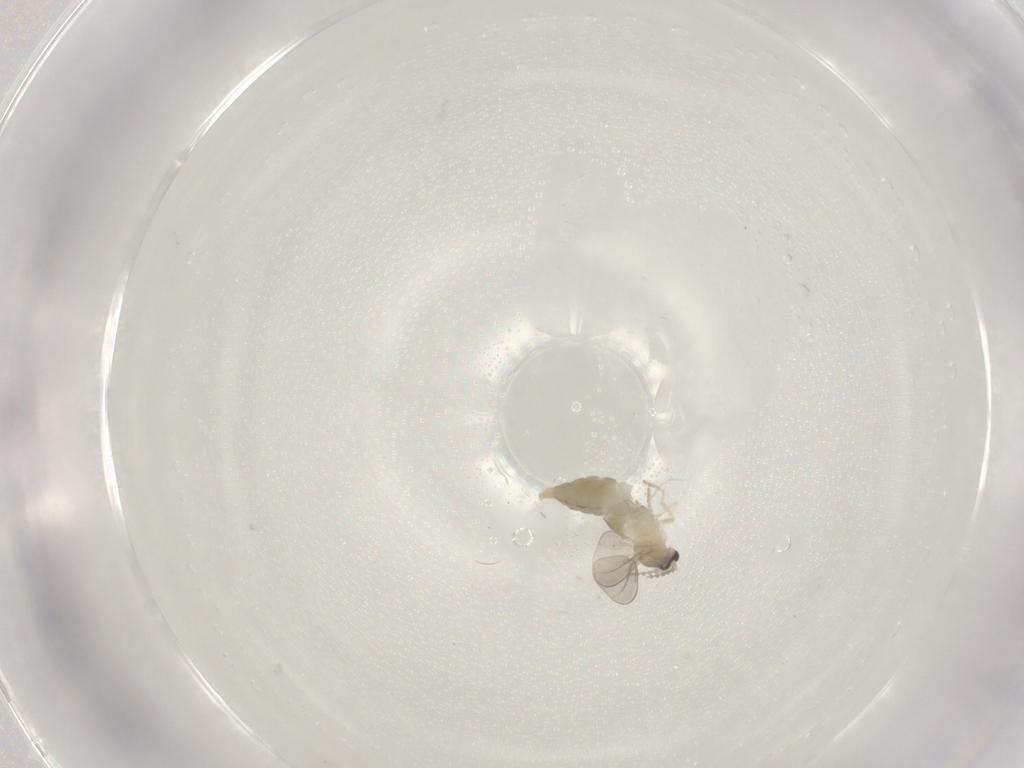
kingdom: Animalia
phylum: Arthropoda
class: Insecta
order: Diptera
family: Cecidomyiidae
